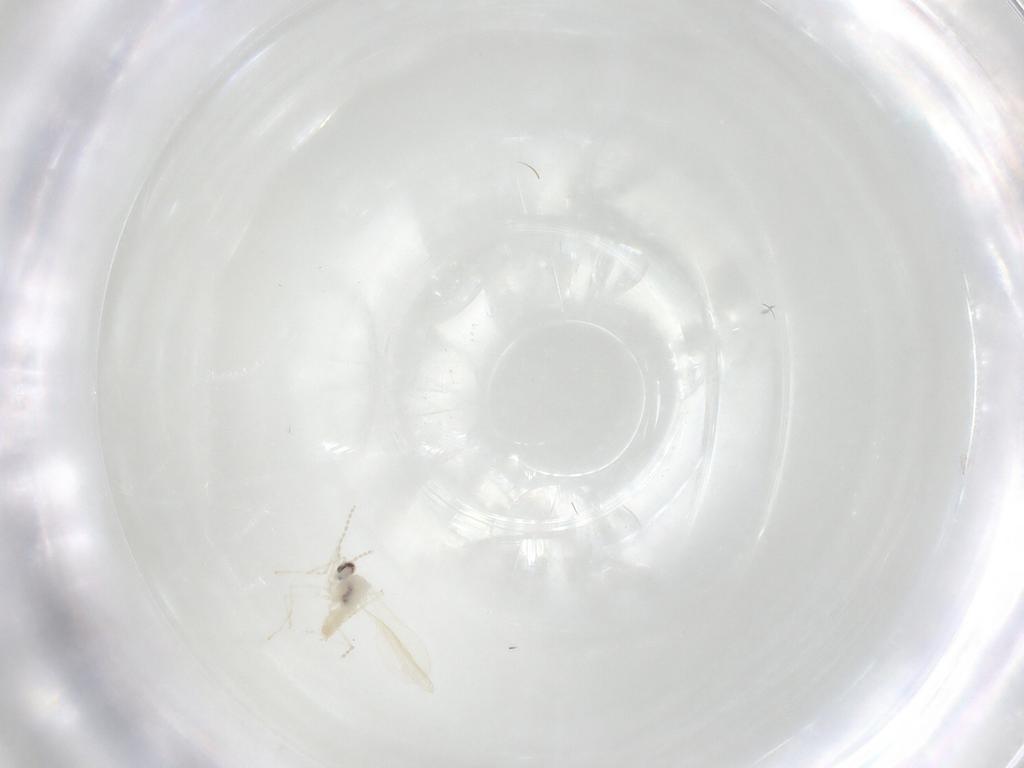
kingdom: Animalia
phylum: Arthropoda
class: Insecta
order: Diptera
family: Cecidomyiidae
